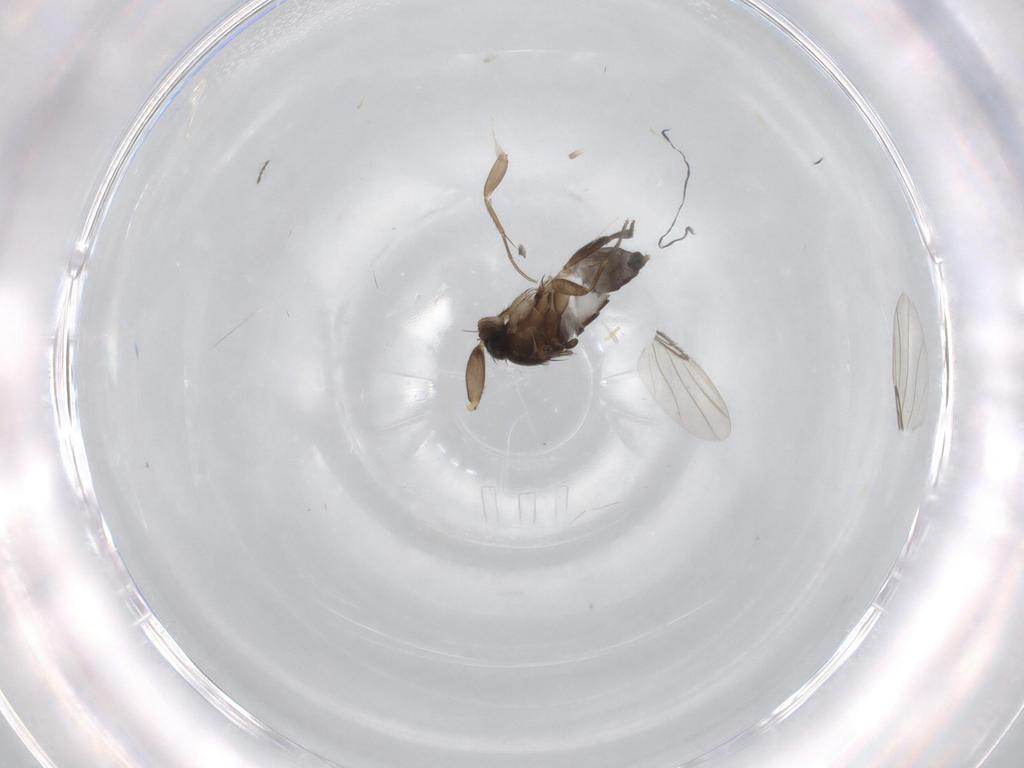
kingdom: Animalia
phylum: Arthropoda
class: Insecta
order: Diptera
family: Phoridae
